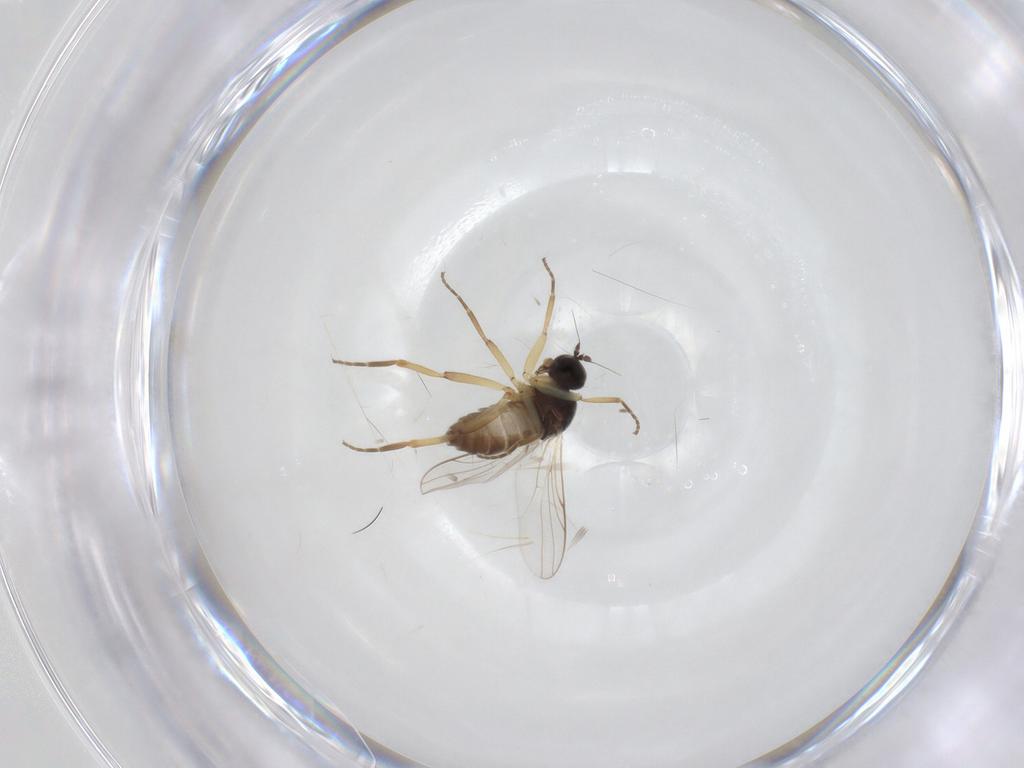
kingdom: Animalia
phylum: Arthropoda
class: Insecta
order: Diptera
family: Hybotidae
